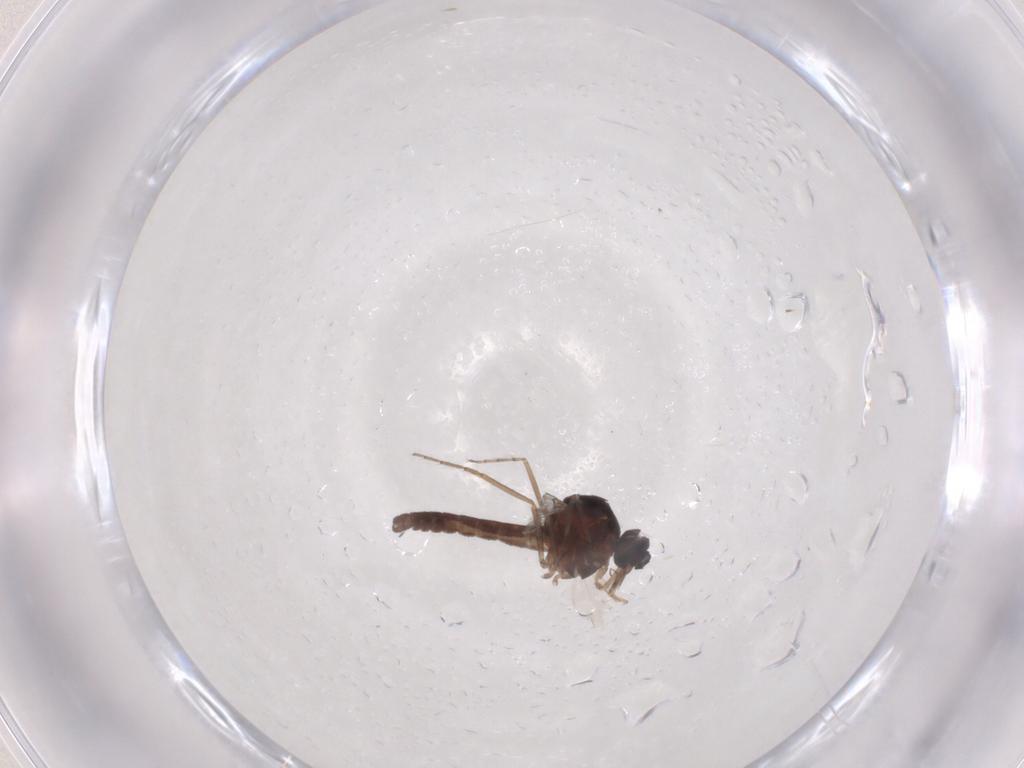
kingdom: Animalia
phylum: Arthropoda
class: Insecta
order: Diptera
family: Ceratopogonidae
